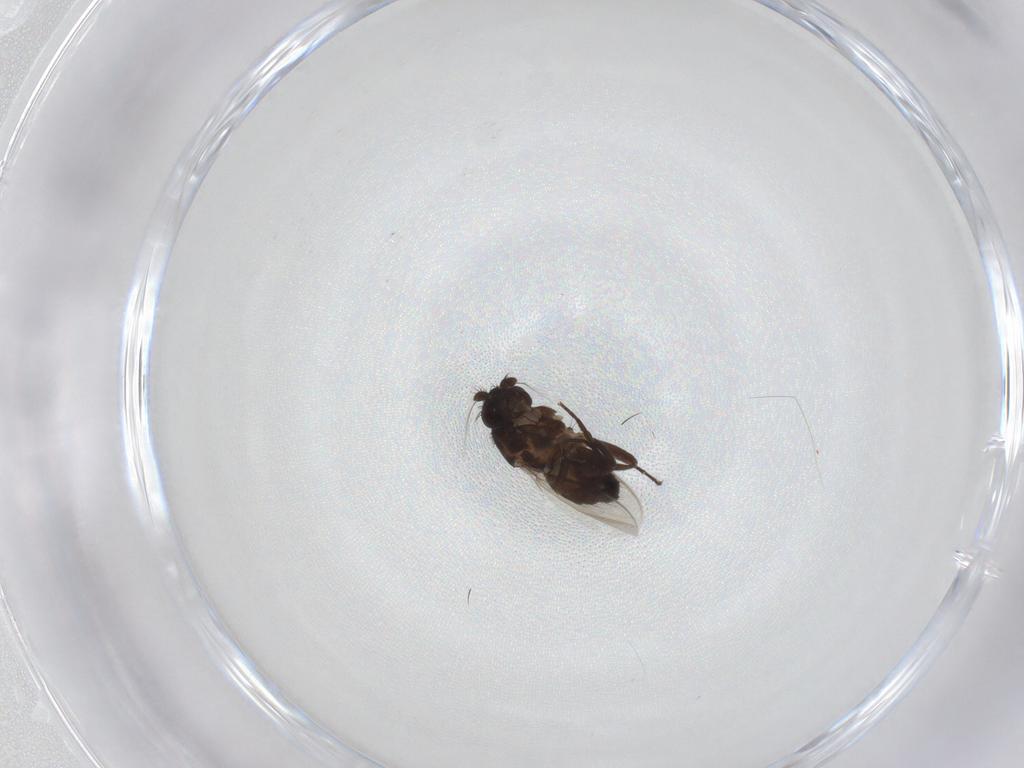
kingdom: Animalia
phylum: Arthropoda
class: Insecta
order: Diptera
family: Sphaeroceridae
